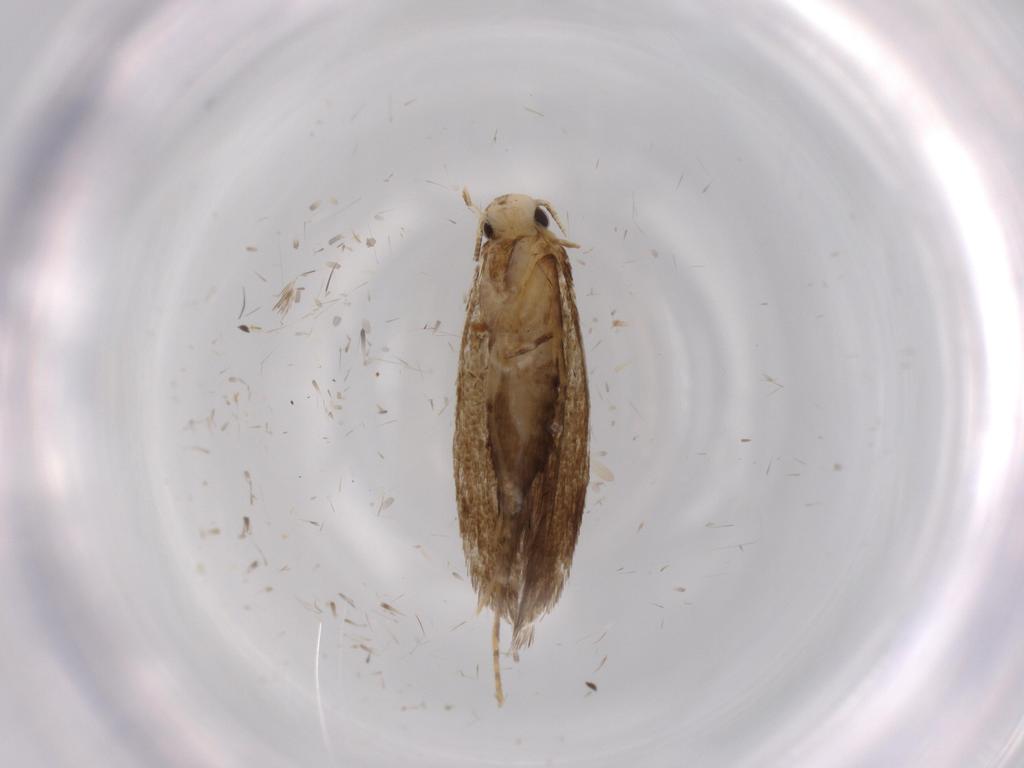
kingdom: Animalia
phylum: Arthropoda
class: Insecta
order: Lepidoptera
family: Tineidae
